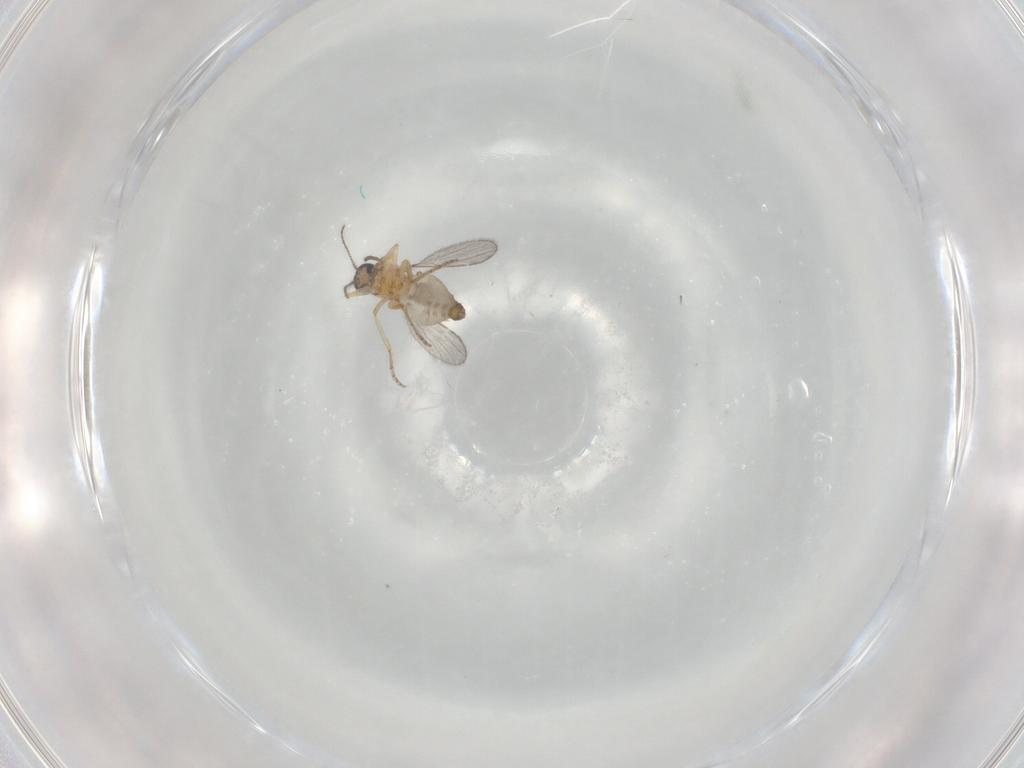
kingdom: Animalia
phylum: Arthropoda
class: Insecta
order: Diptera
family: Ceratopogonidae
